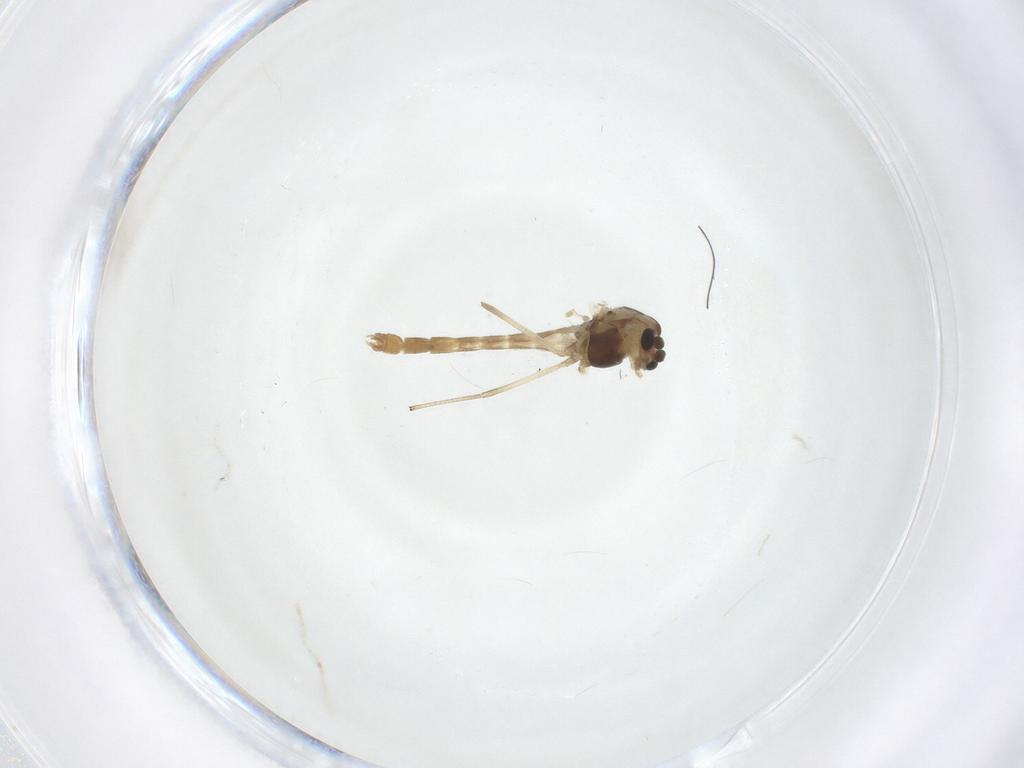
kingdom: Animalia
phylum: Arthropoda
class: Insecta
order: Diptera
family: Chironomidae
